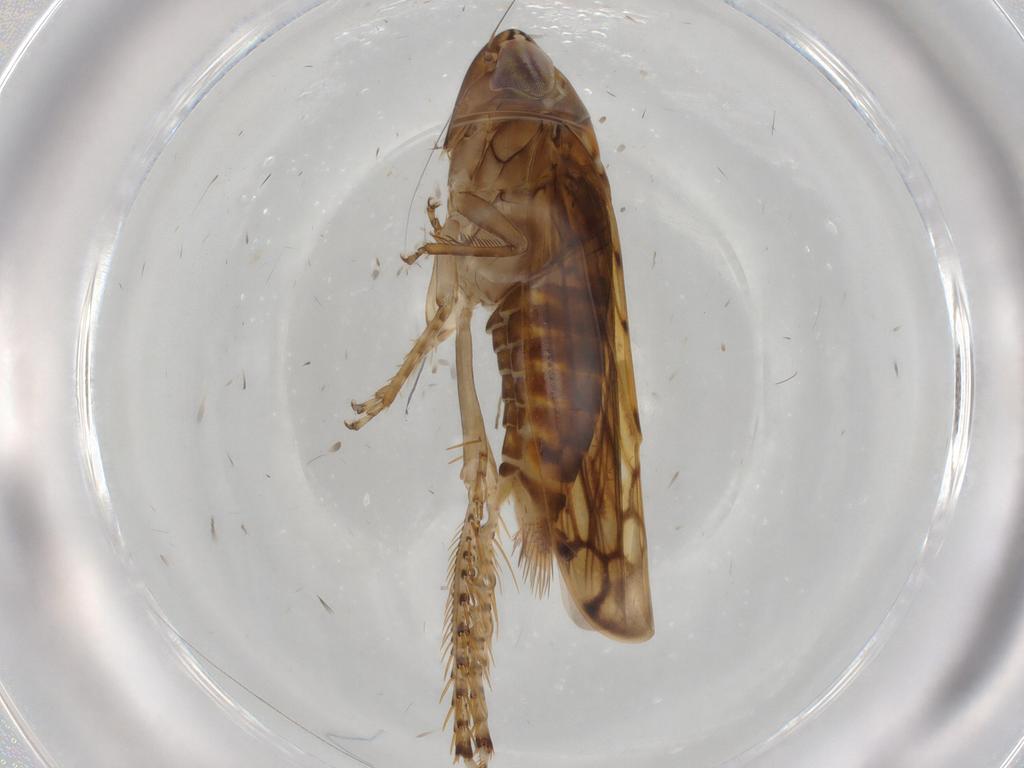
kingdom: Animalia
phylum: Arthropoda
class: Insecta
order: Hemiptera
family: Cicadellidae
